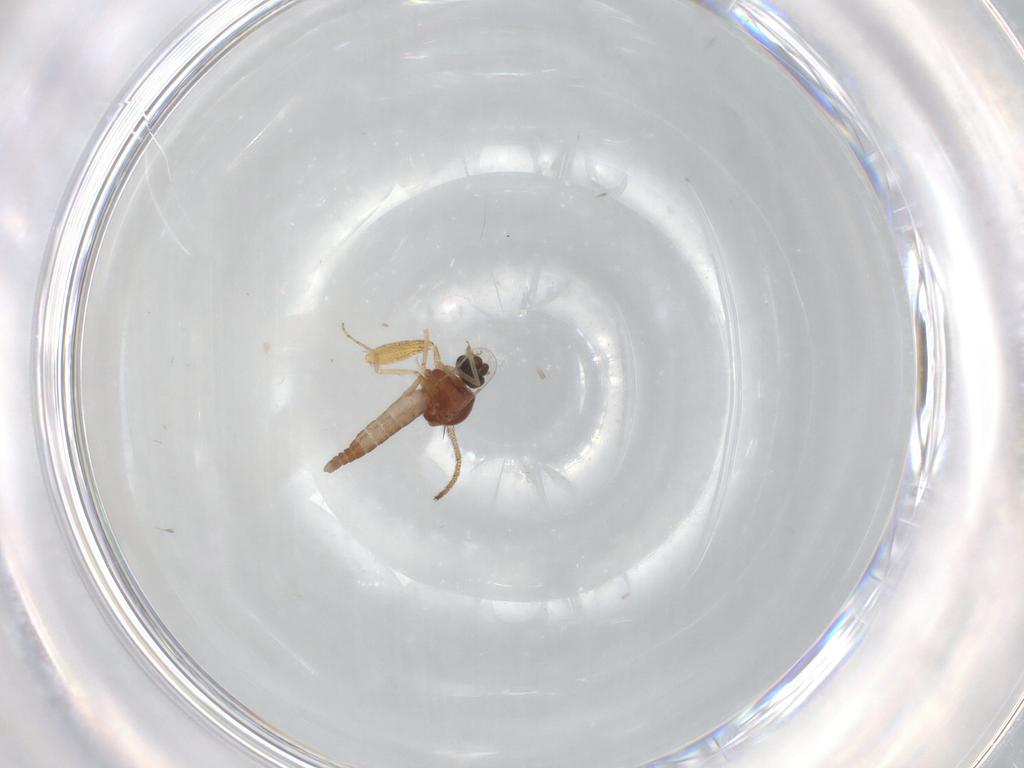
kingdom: Animalia
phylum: Arthropoda
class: Insecta
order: Diptera
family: Ceratopogonidae
